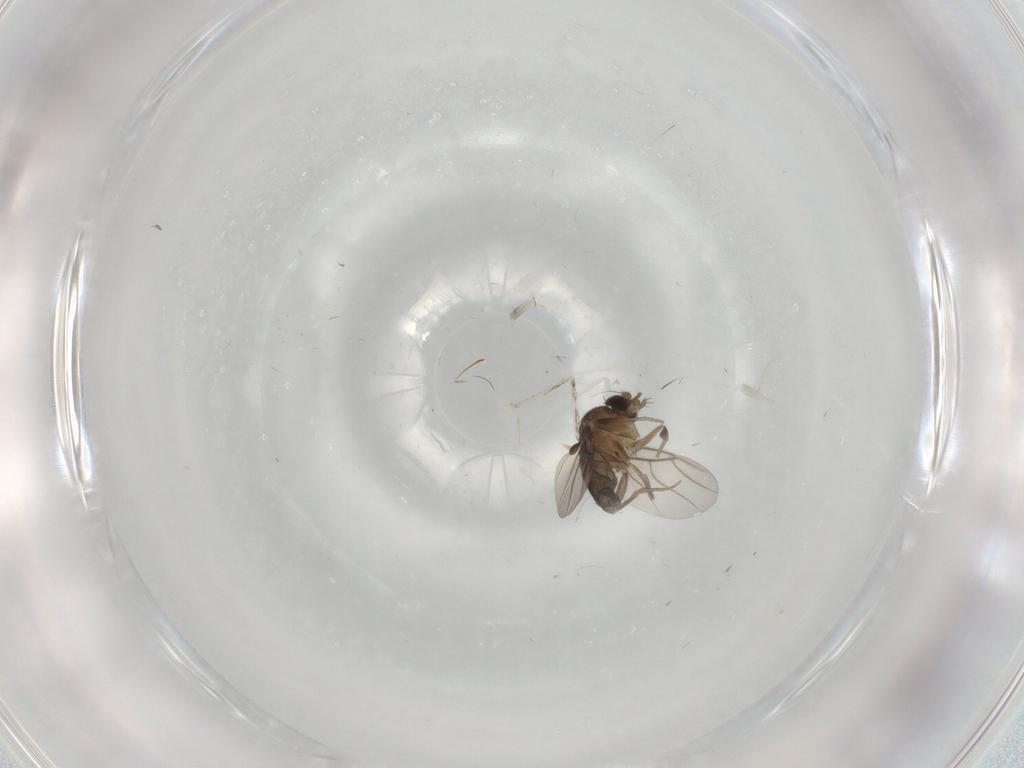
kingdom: Animalia
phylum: Arthropoda
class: Insecta
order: Diptera
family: Phoridae
